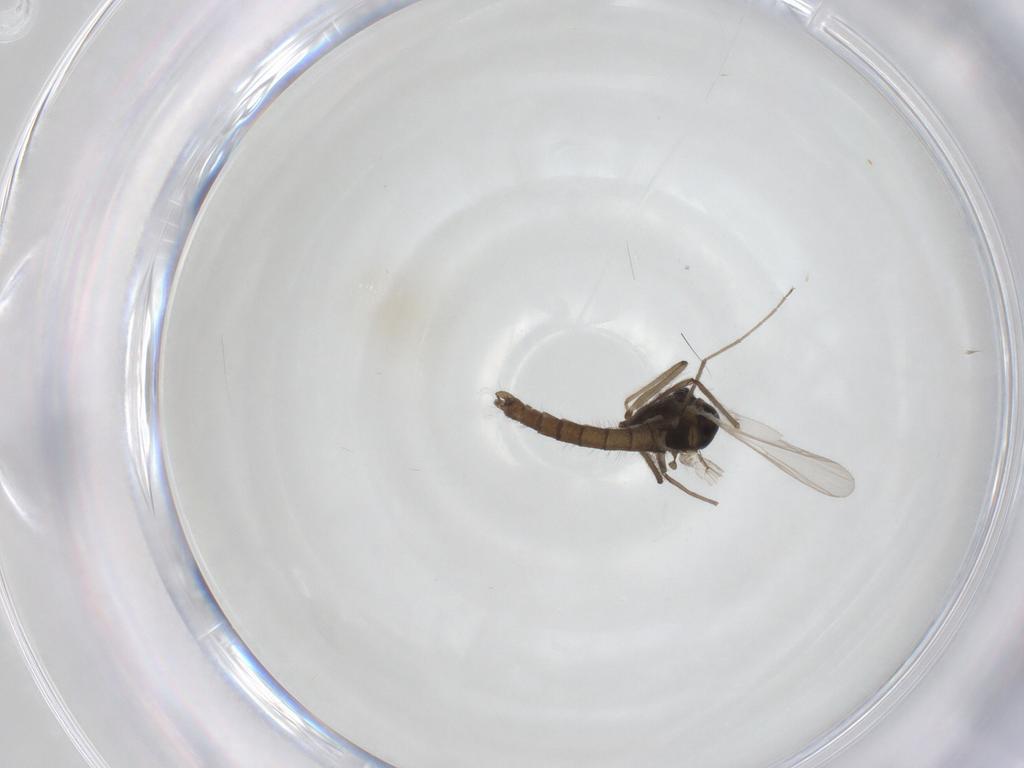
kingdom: Animalia
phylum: Arthropoda
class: Insecta
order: Diptera
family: Chironomidae
